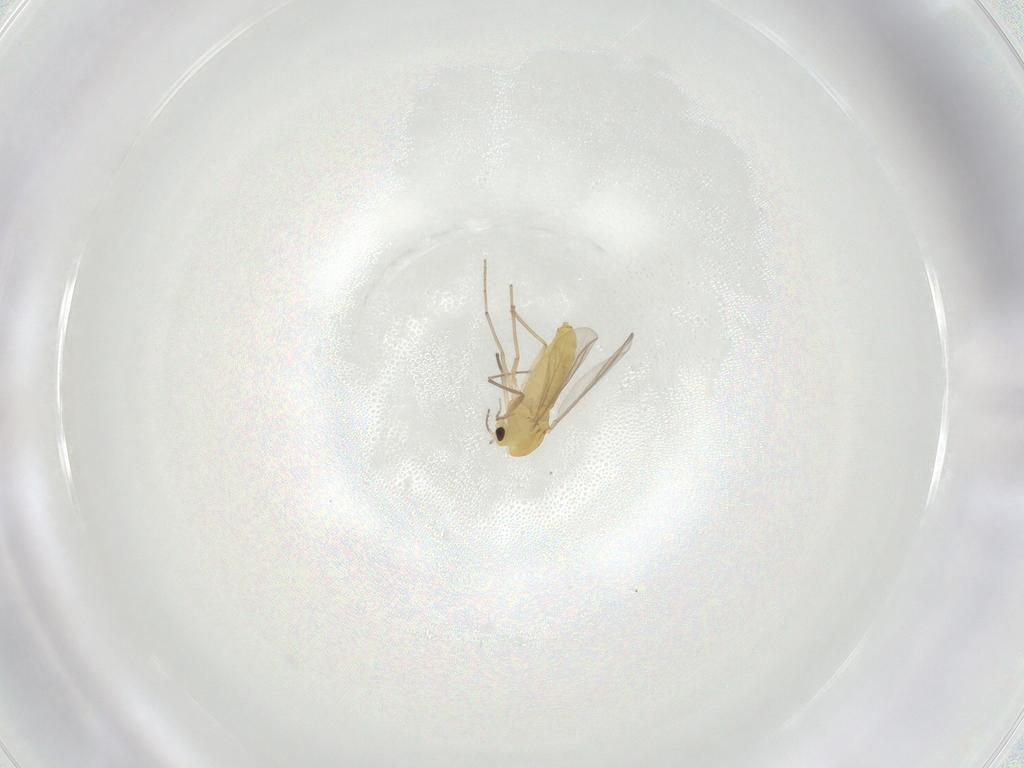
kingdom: Animalia
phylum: Arthropoda
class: Insecta
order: Diptera
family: Chironomidae
